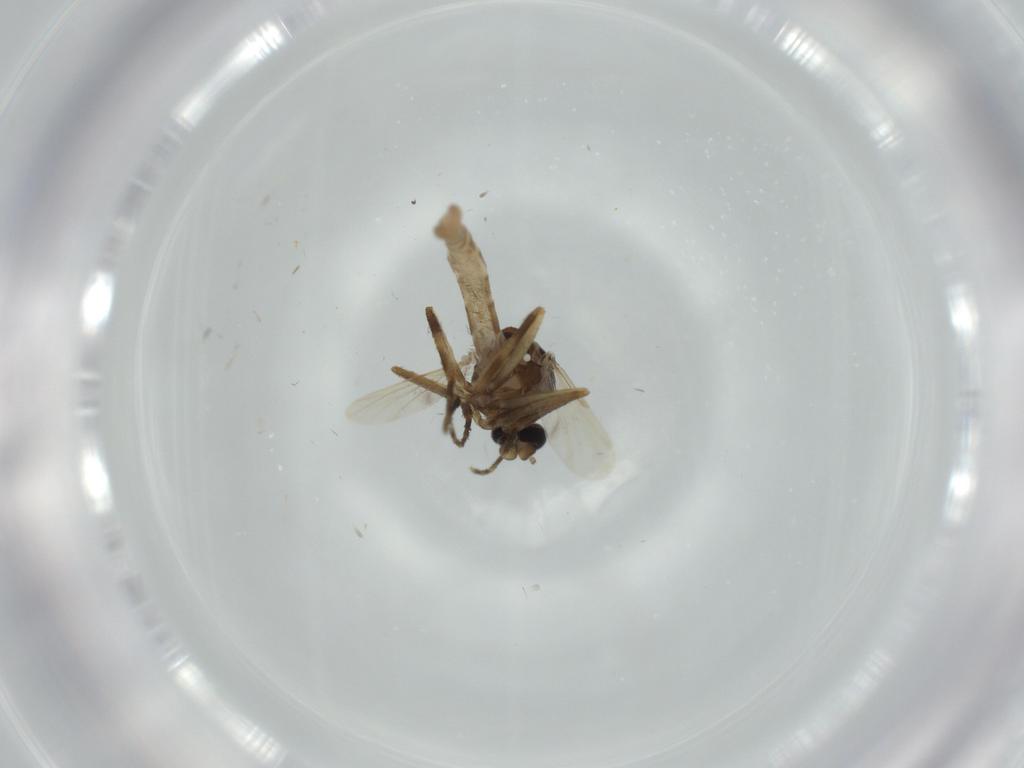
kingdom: Animalia
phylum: Arthropoda
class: Insecta
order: Diptera
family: Ceratopogonidae
